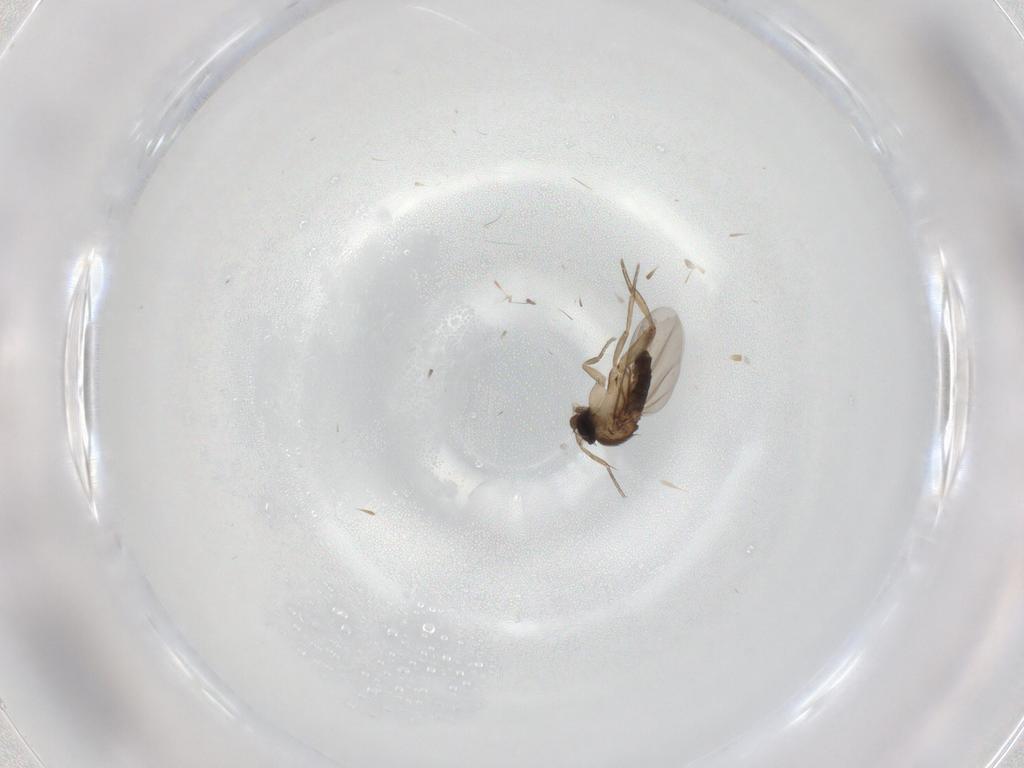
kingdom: Animalia
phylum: Arthropoda
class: Insecta
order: Diptera
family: Phoridae
